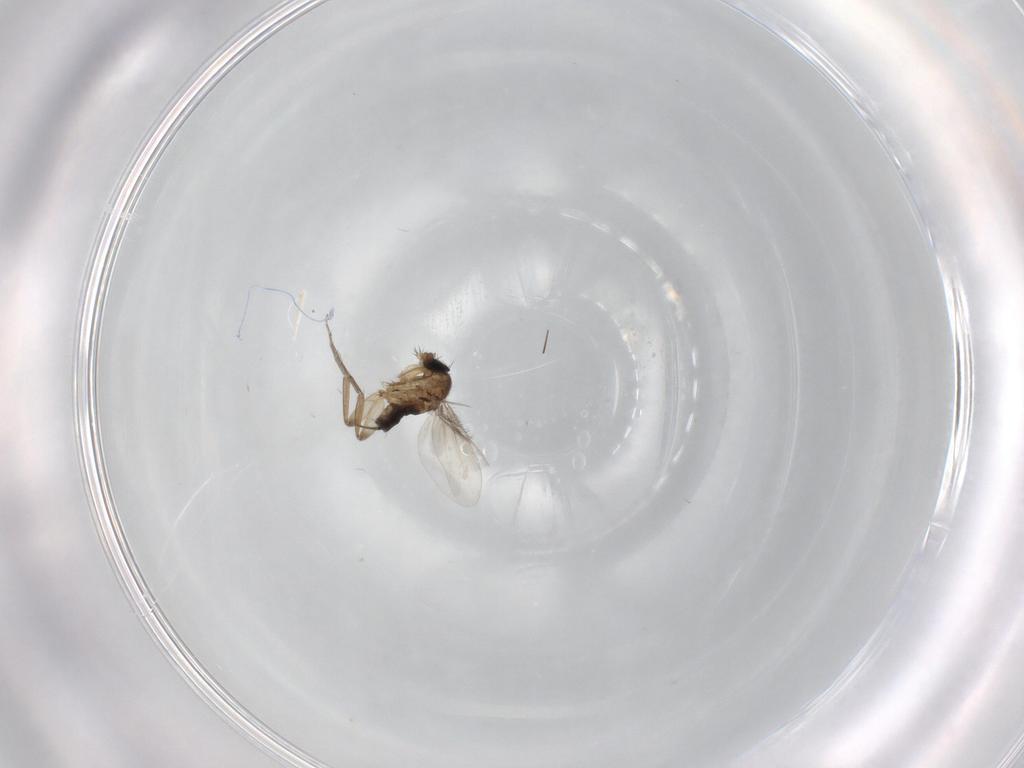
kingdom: Animalia
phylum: Arthropoda
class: Insecta
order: Diptera
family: Phoridae
